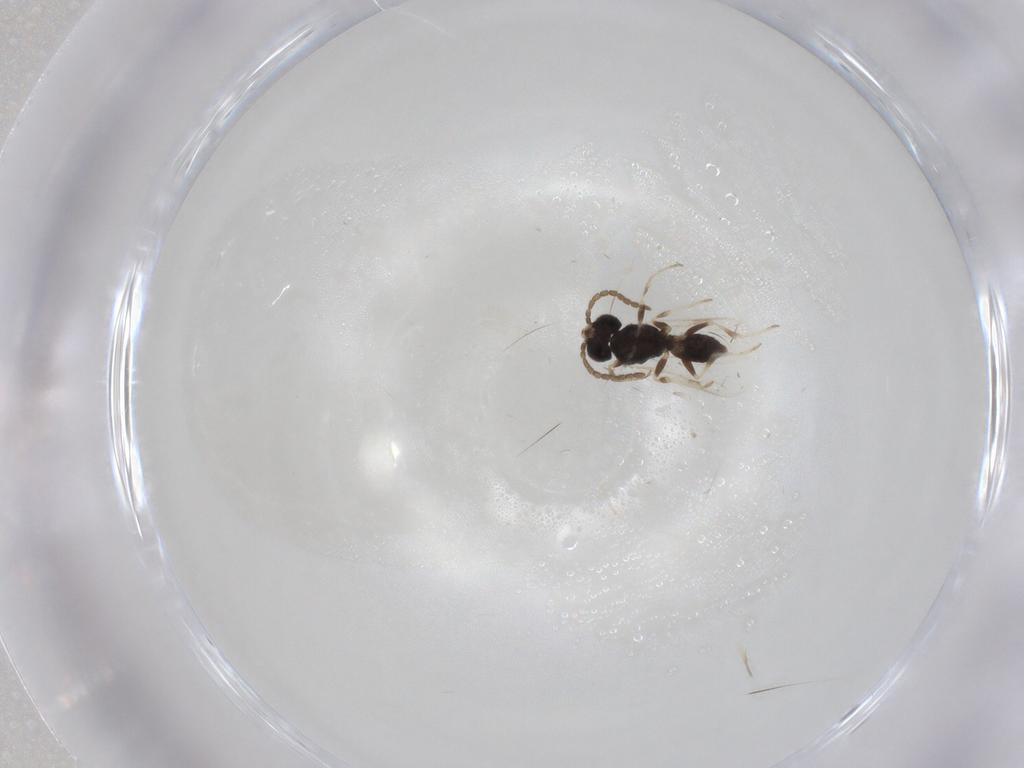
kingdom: Animalia
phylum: Arthropoda
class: Insecta
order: Hymenoptera
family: Dryinidae
